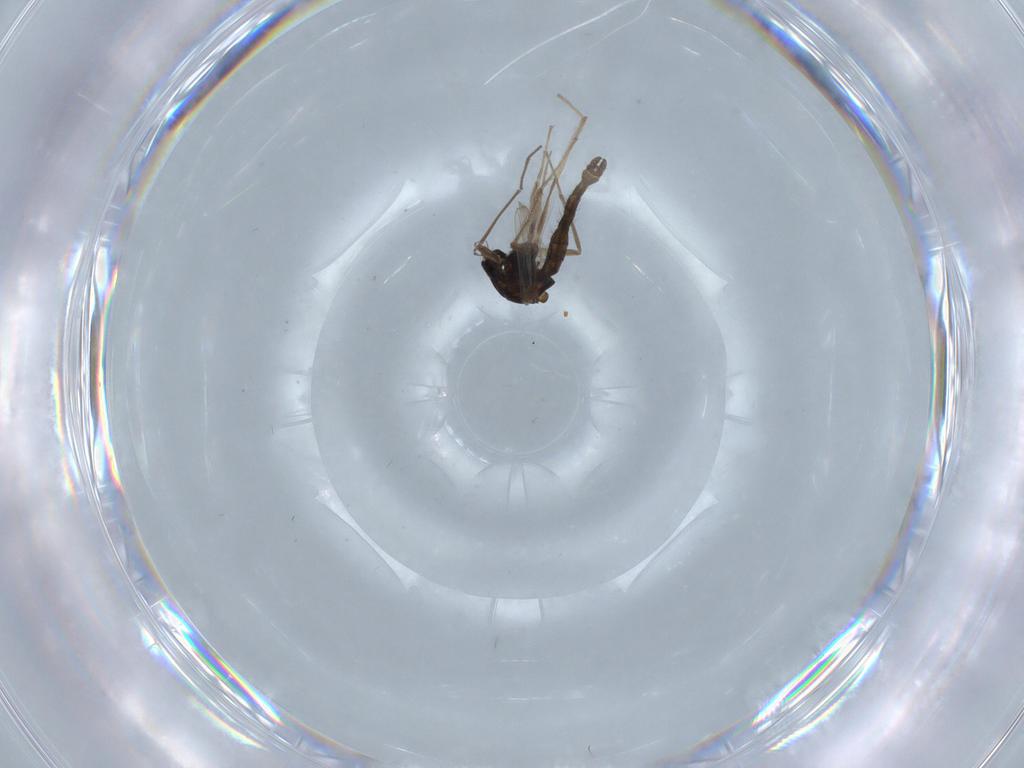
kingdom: Animalia
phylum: Arthropoda
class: Insecta
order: Diptera
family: Chironomidae
